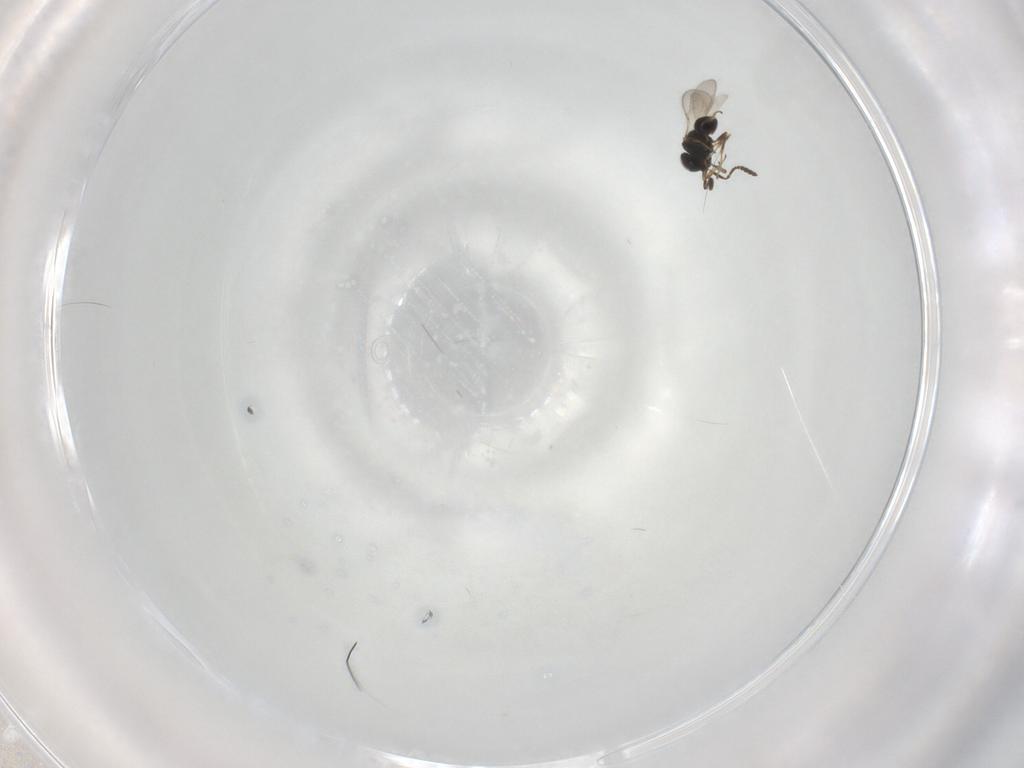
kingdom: Animalia
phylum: Arthropoda
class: Insecta
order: Hymenoptera
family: Scelionidae
